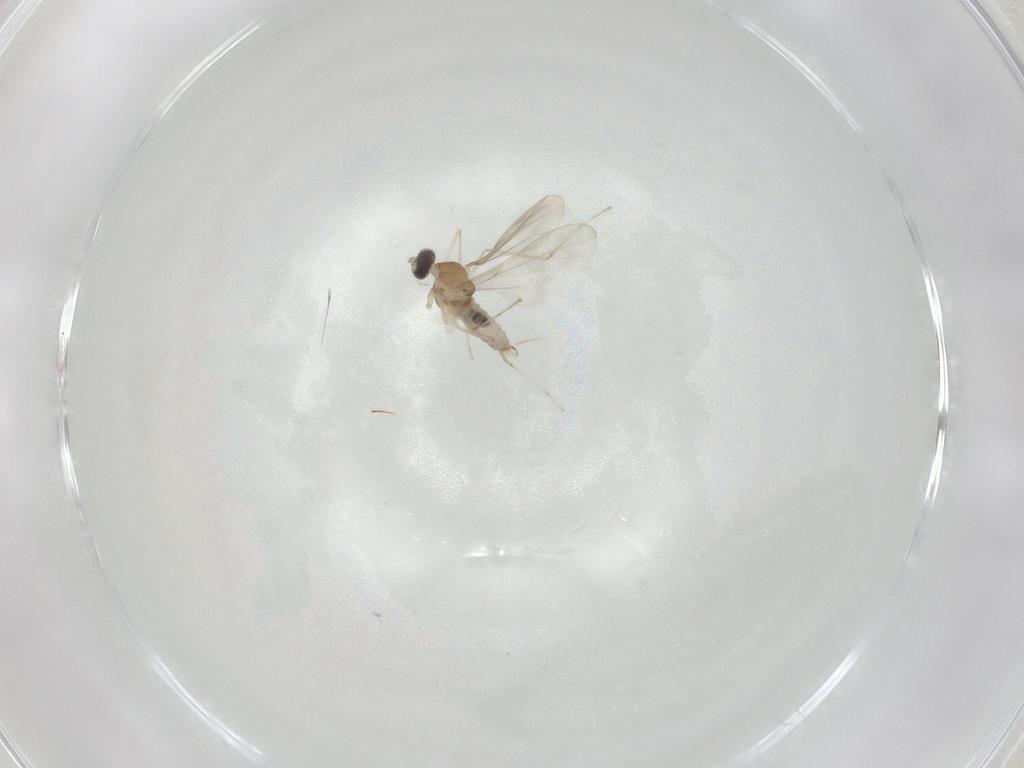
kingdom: Animalia
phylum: Arthropoda
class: Insecta
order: Diptera
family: Cecidomyiidae
